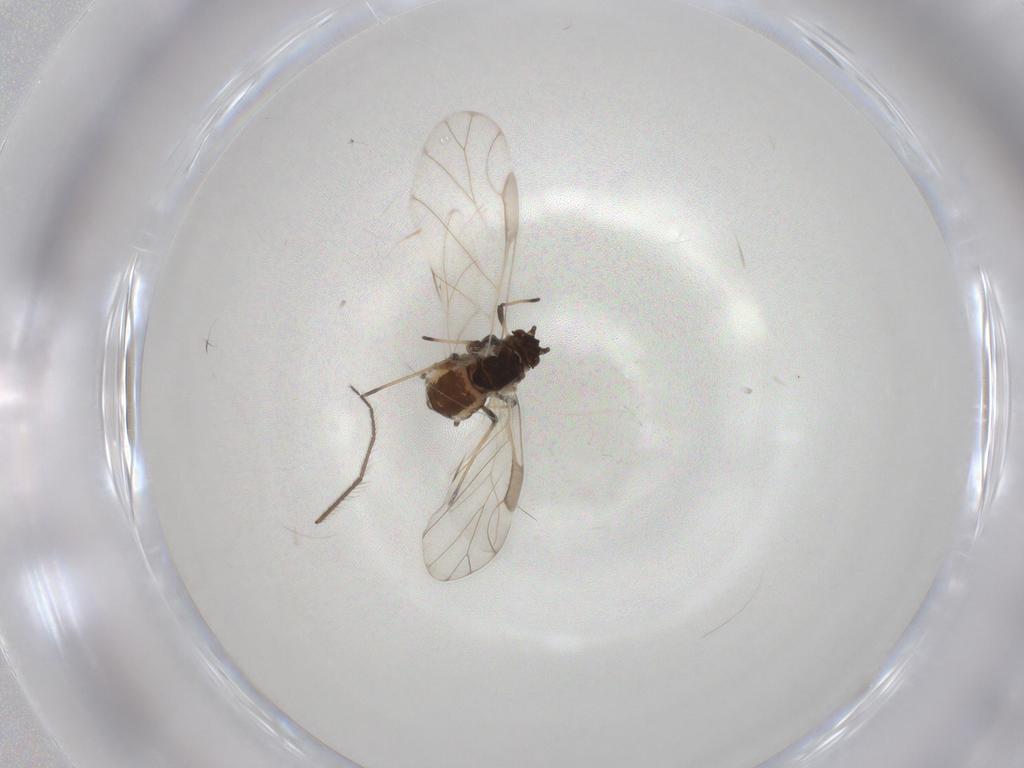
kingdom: Animalia
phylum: Arthropoda
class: Insecta
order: Hemiptera
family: Aphididae
